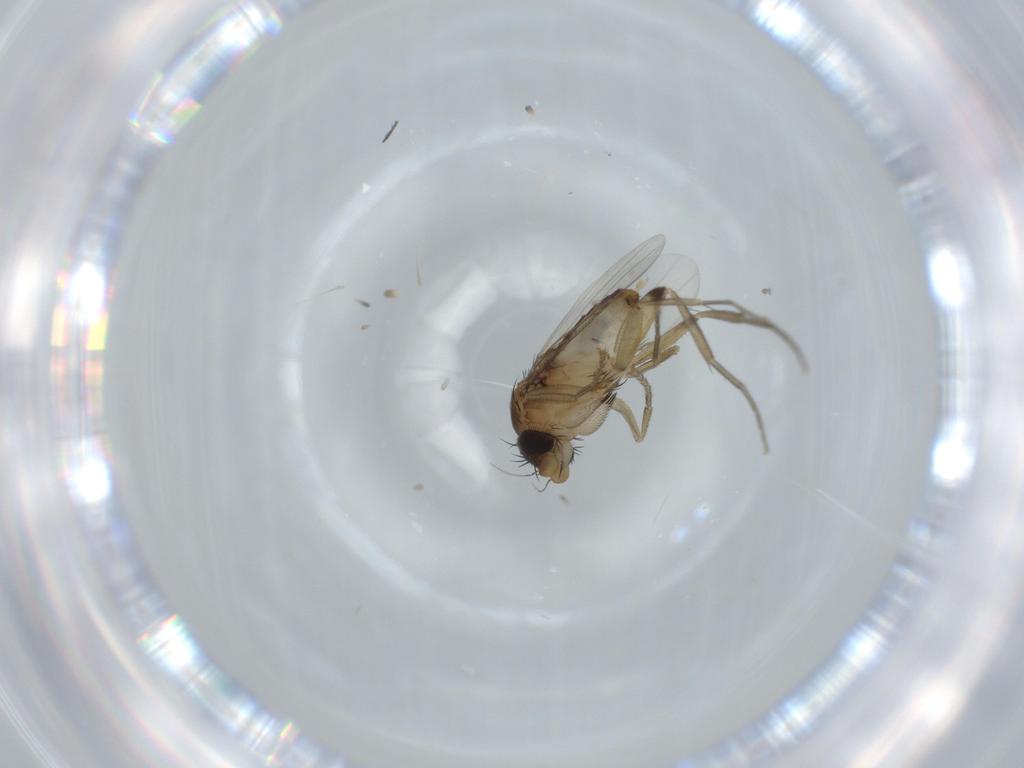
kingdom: Animalia
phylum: Arthropoda
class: Insecta
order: Diptera
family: Phoridae
